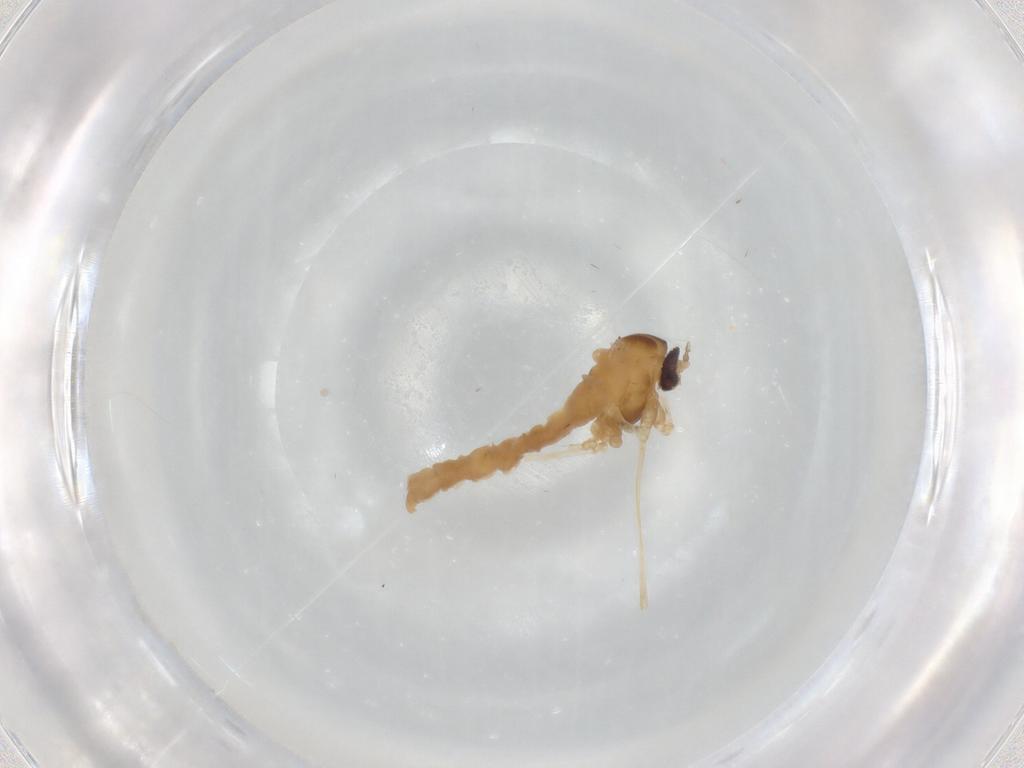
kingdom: Animalia
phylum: Arthropoda
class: Insecta
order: Diptera
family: Cecidomyiidae
